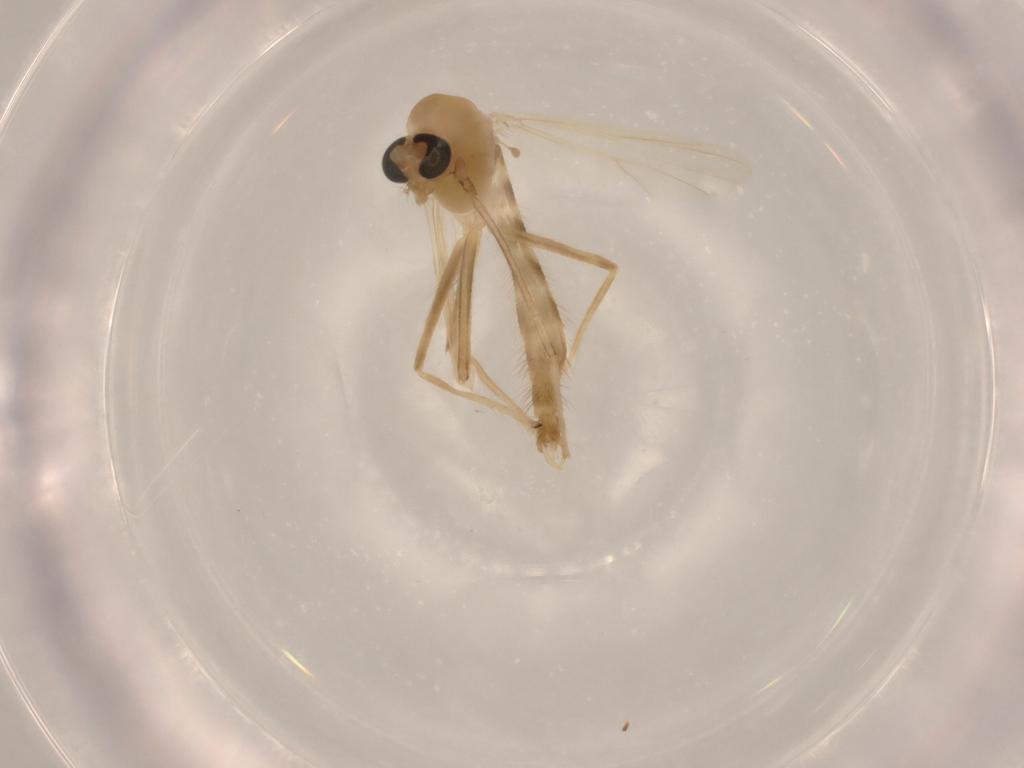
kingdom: Animalia
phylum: Arthropoda
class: Insecta
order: Diptera
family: Chironomidae
